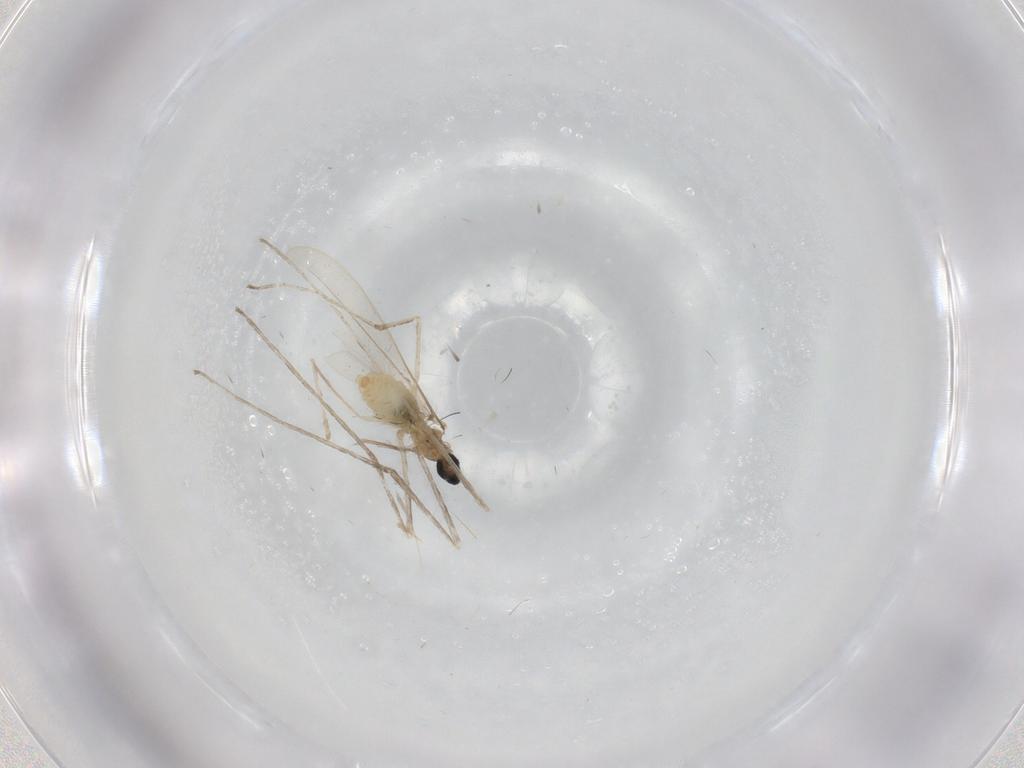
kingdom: Animalia
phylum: Arthropoda
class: Insecta
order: Diptera
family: Cecidomyiidae
